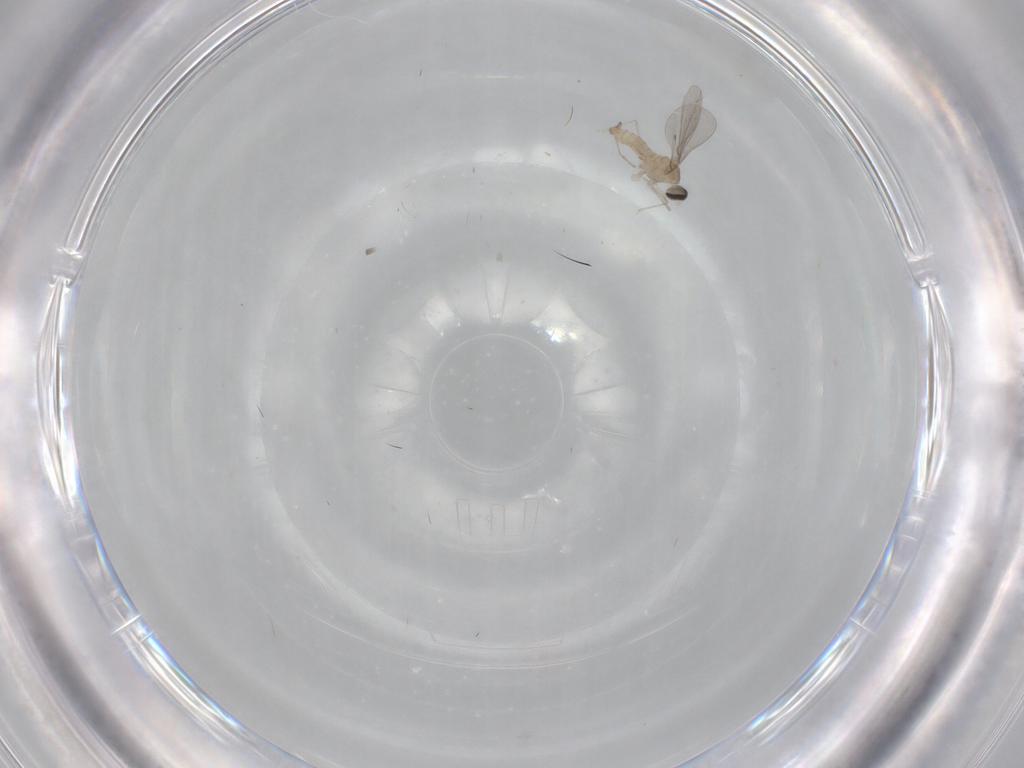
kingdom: Animalia
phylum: Arthropoda
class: Insecta
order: Diptera
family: Cecidomyiidae
